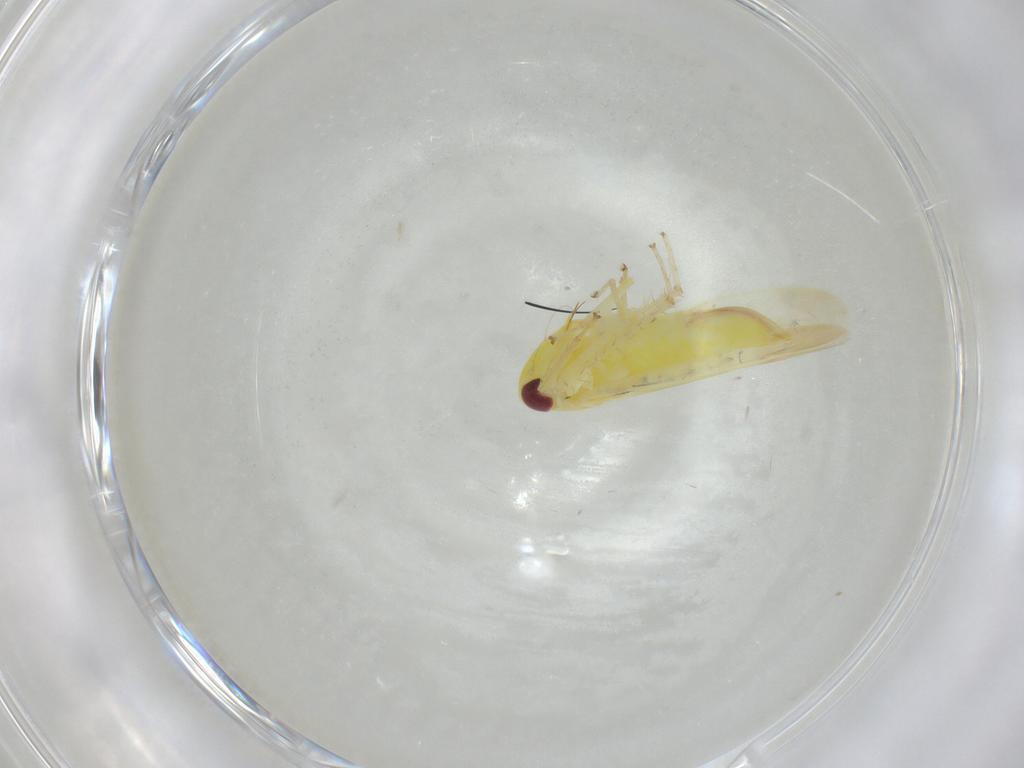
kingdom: Animalia
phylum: Arthropoda
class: Insecta
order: Hemiptera
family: Cicadellidae
